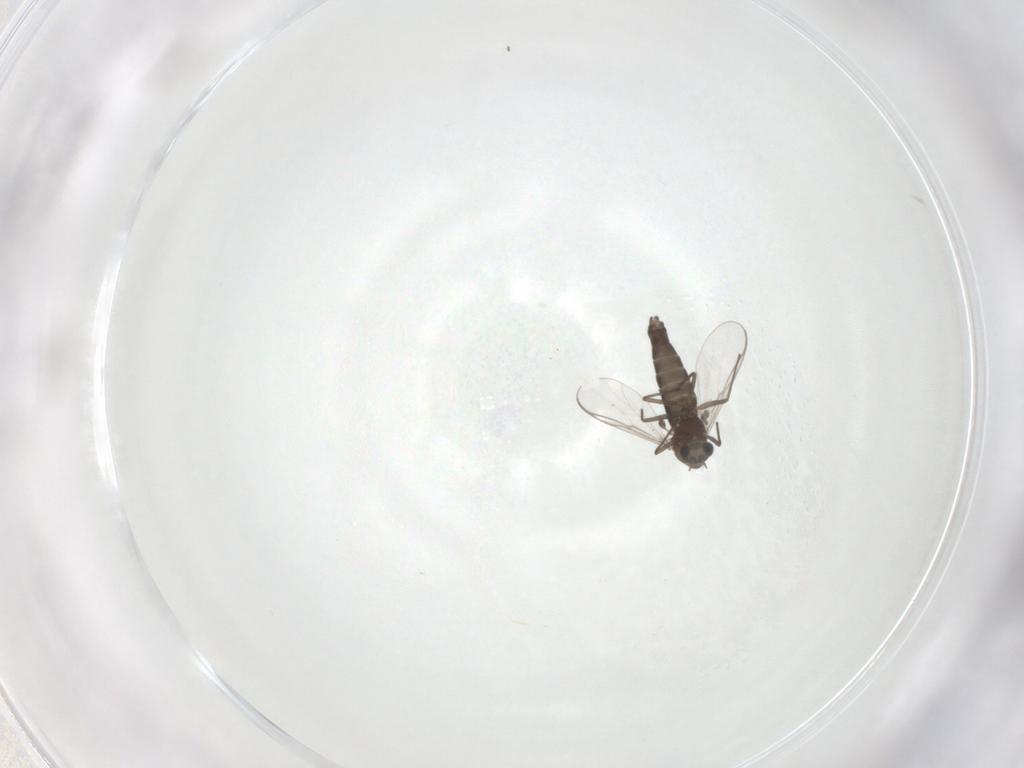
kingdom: Animalia
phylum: Arthropoda
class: Insecta
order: Diptera
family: Chironomidae
